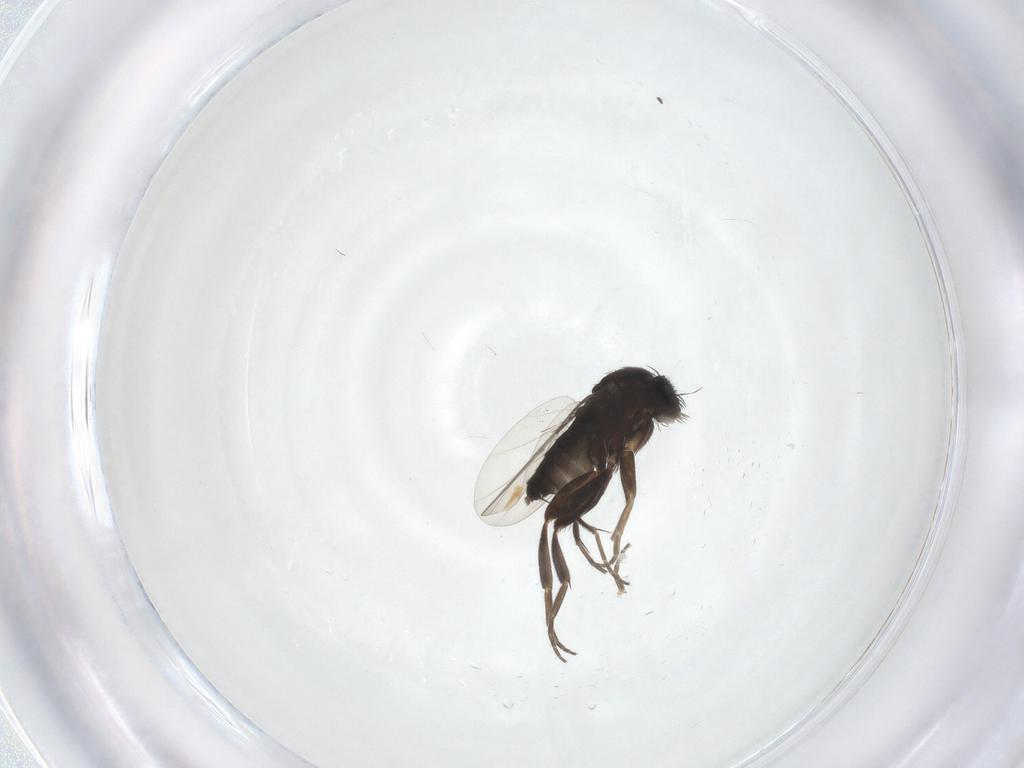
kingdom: Animalia
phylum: Arthropoda
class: Insecta
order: Diptera
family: Phoridae
